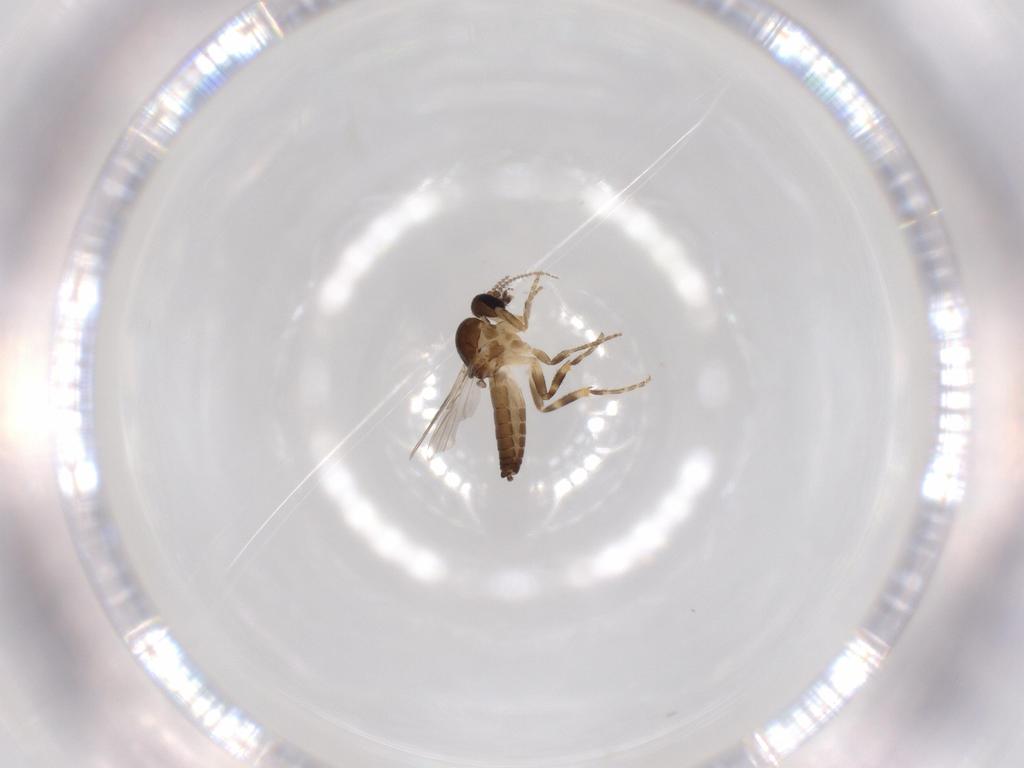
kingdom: Animalia
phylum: Arthropoda
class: Insecta
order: Diptera
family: Ceratopogonidae
